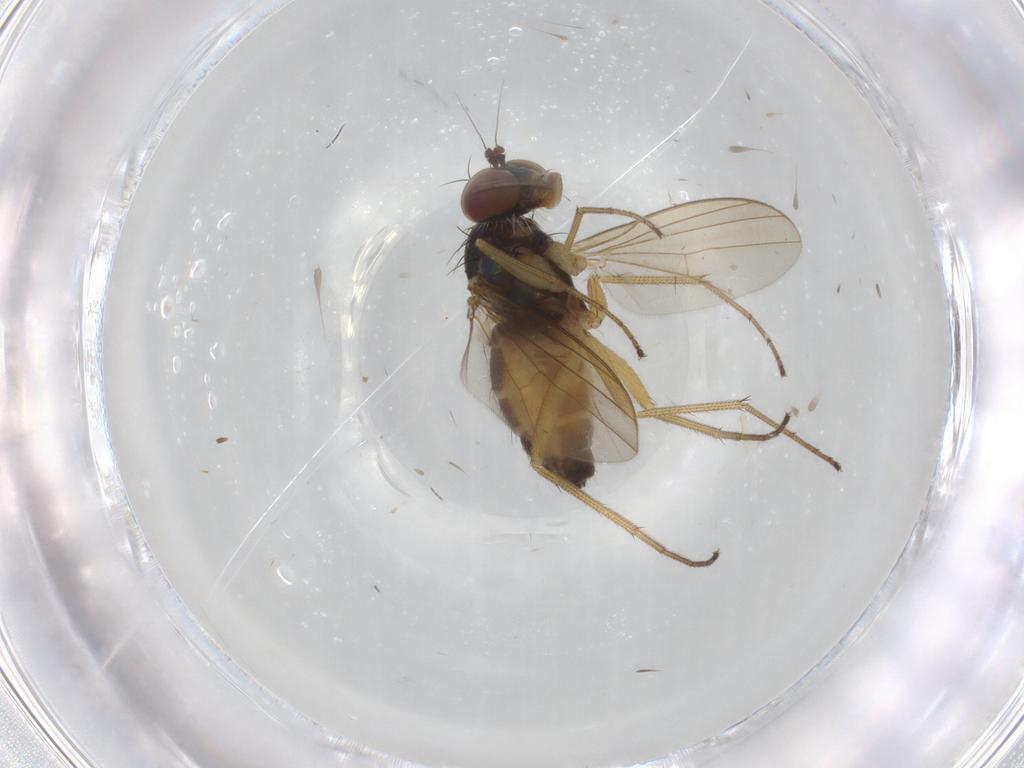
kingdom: Animalia
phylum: Arthropoda
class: Insecta
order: Diptera
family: Dolichopodidae
